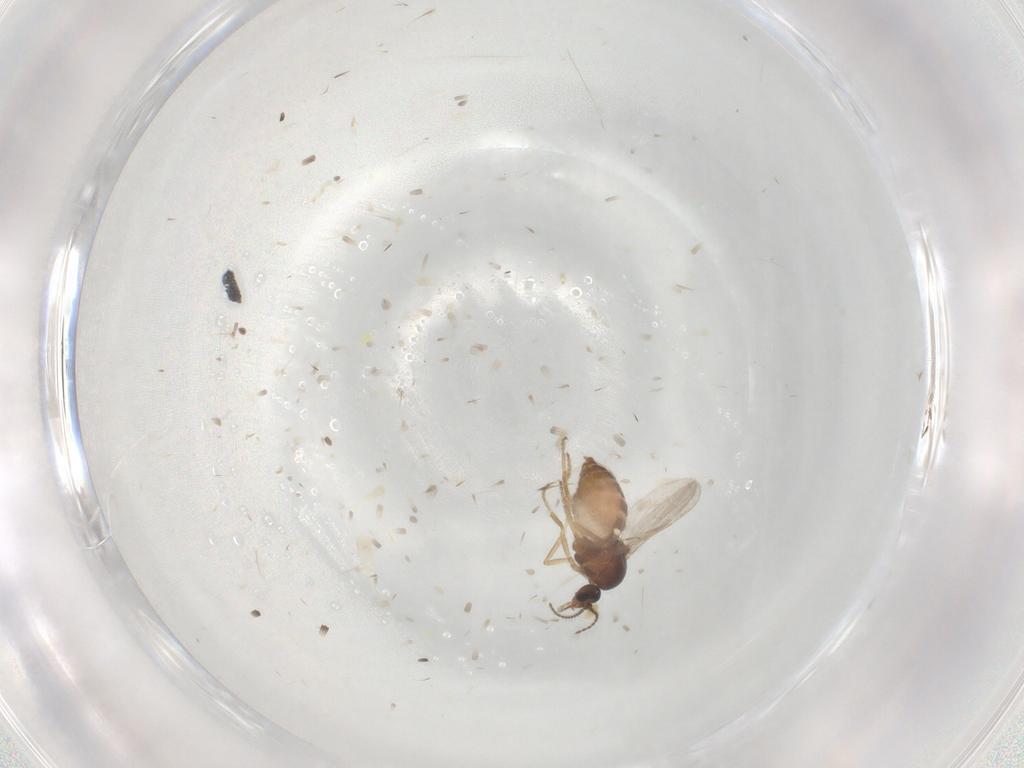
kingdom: Animalia
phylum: Arthropoda
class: Insecta
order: Diptera
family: Ceratopogonidae
